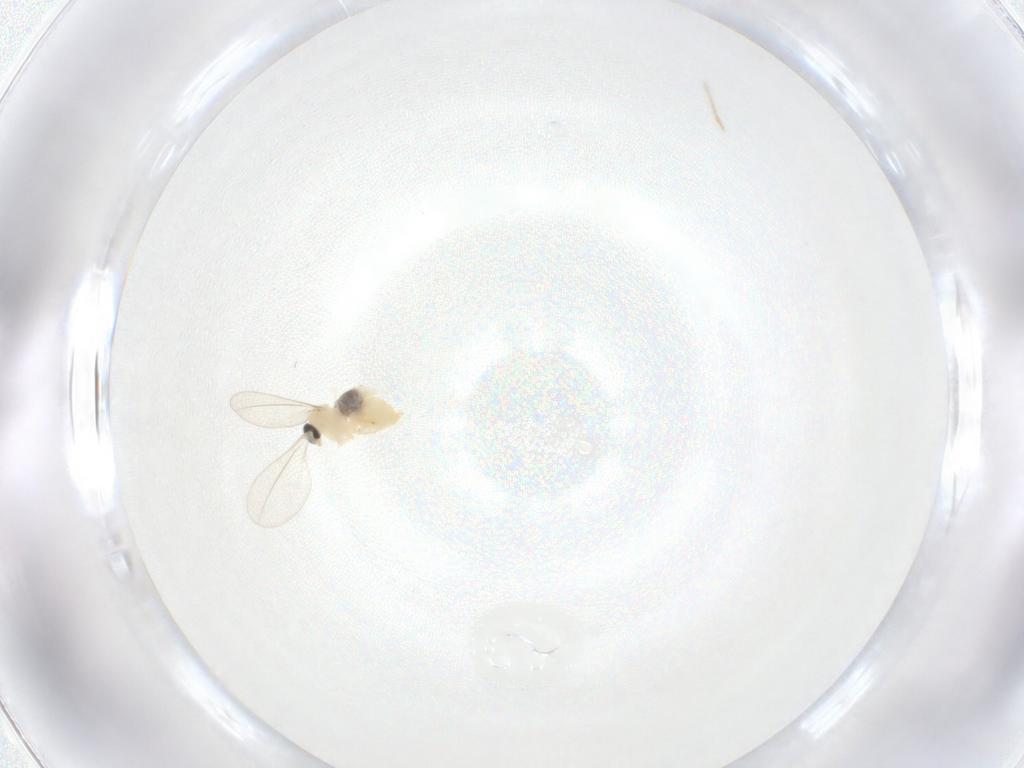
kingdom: Animalia
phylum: Arthropoda
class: Insecta
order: Diptera
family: Cecidomyiidae
